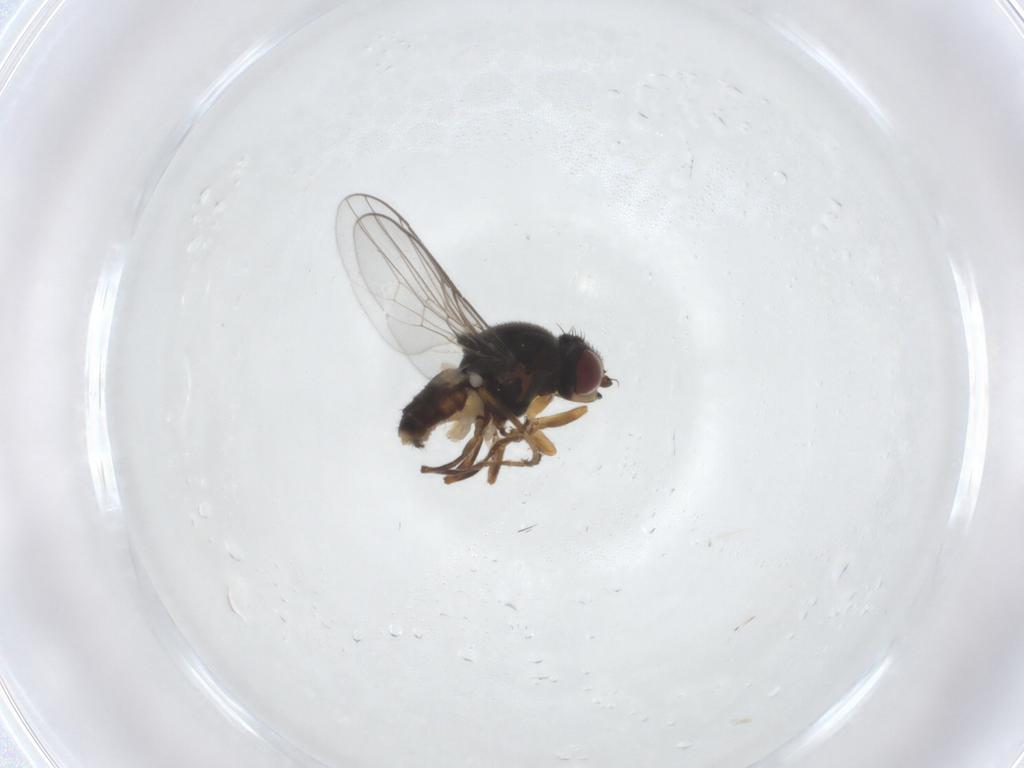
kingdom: Animalia
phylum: Arthropoda
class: Insecta
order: Diptera
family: Chloropidae
